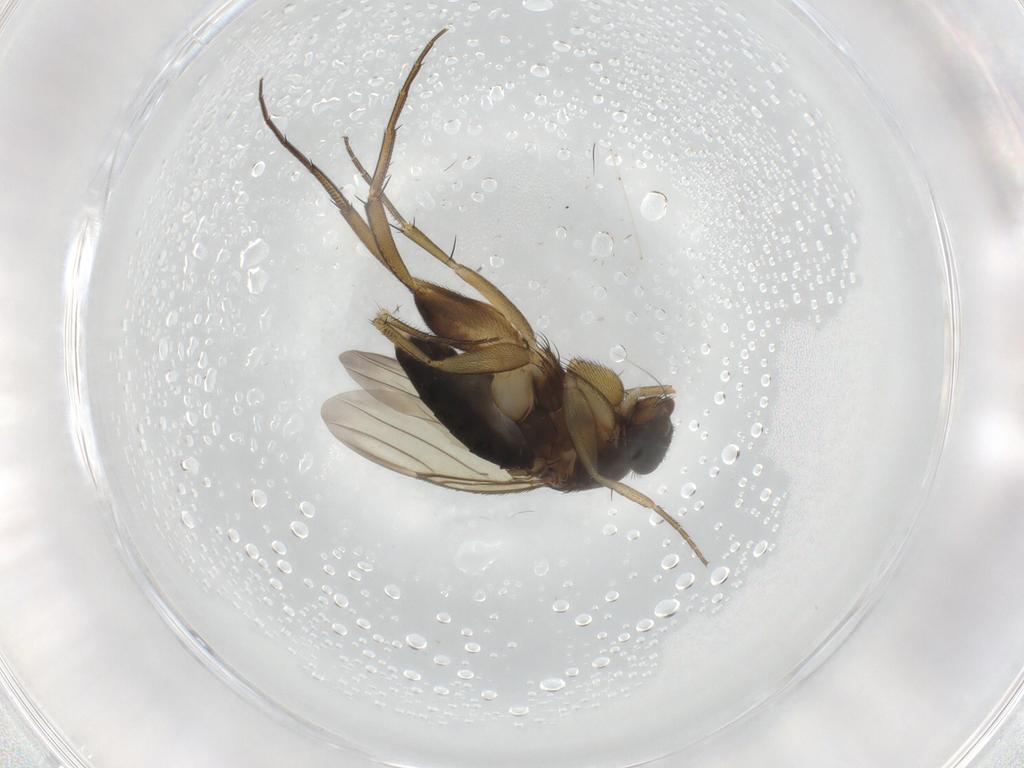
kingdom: Animalia
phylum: Arthropoda
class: Insecta
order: Diptera
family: Phoridae
